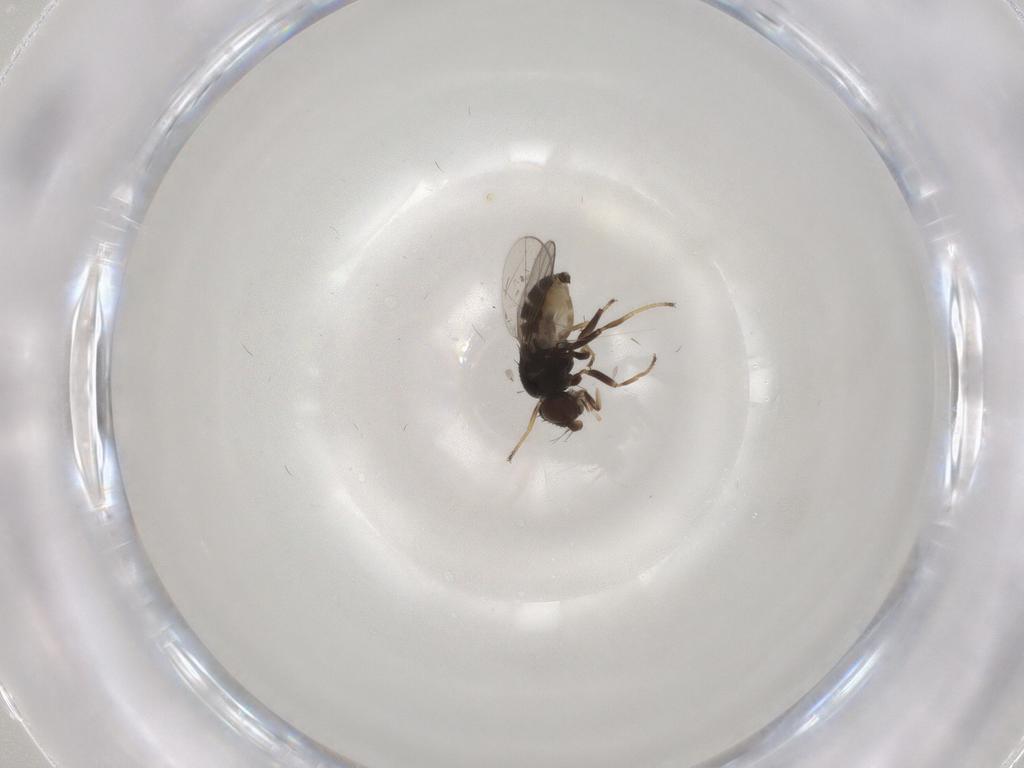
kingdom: Animalia
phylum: Arthropoda
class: Insecta
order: Diptera
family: Chloropidae
